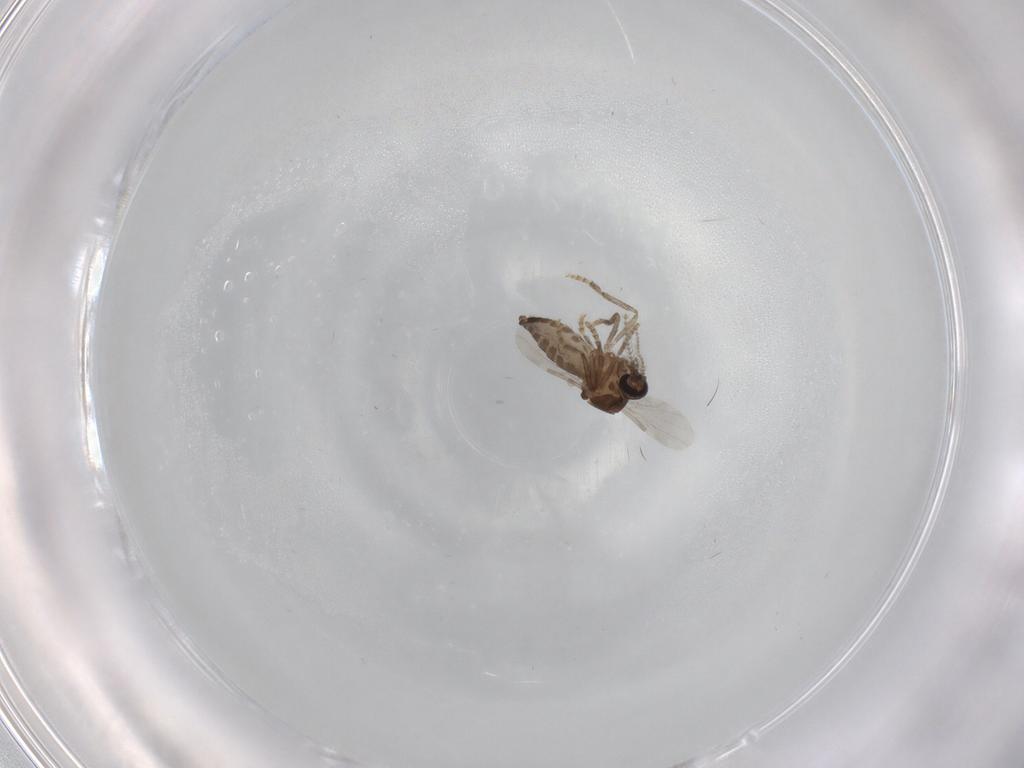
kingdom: Animalia
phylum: Arthropoda
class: Insecta
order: Diptera
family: Ceratopogonidae
